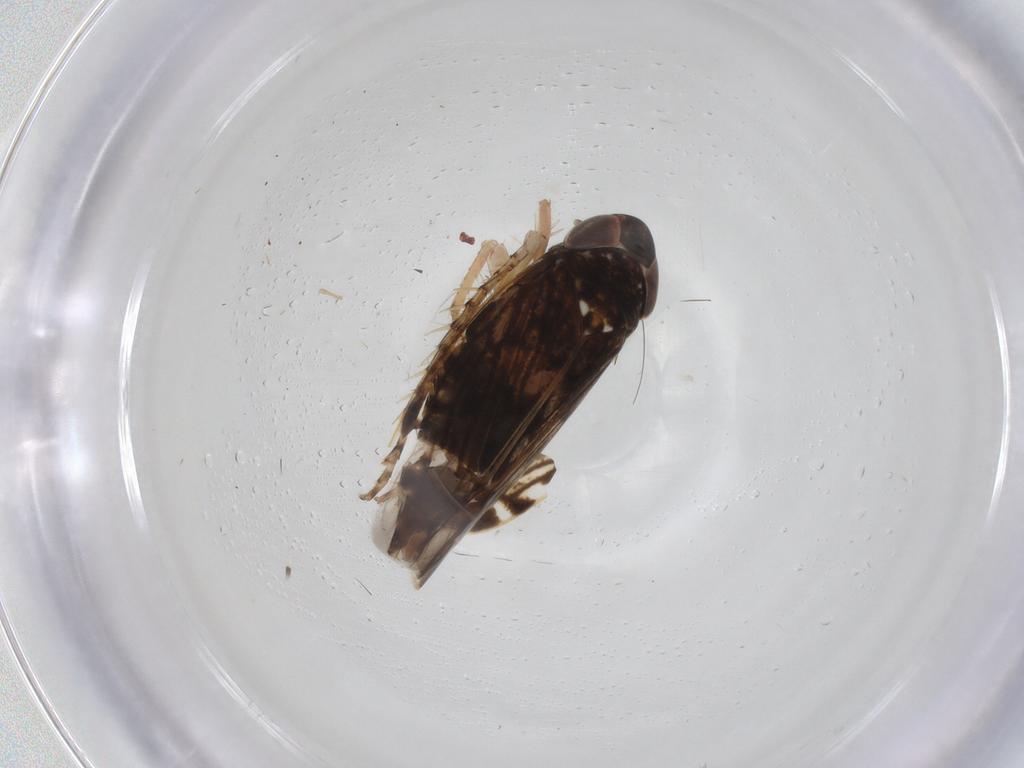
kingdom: Animalia
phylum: Arthropoda
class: Insecta
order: Hemiptera
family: Cicadellidae
